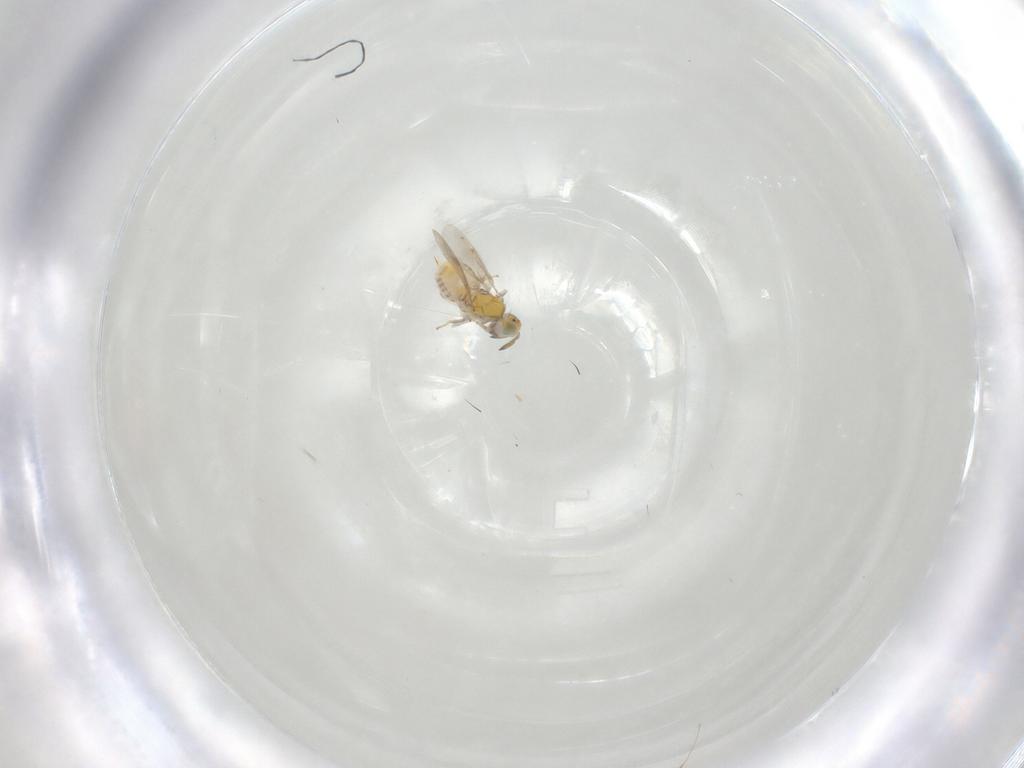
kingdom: Animalia
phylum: Arthropoda
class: Insecta
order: Hymenoptera
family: Aphelinidae
